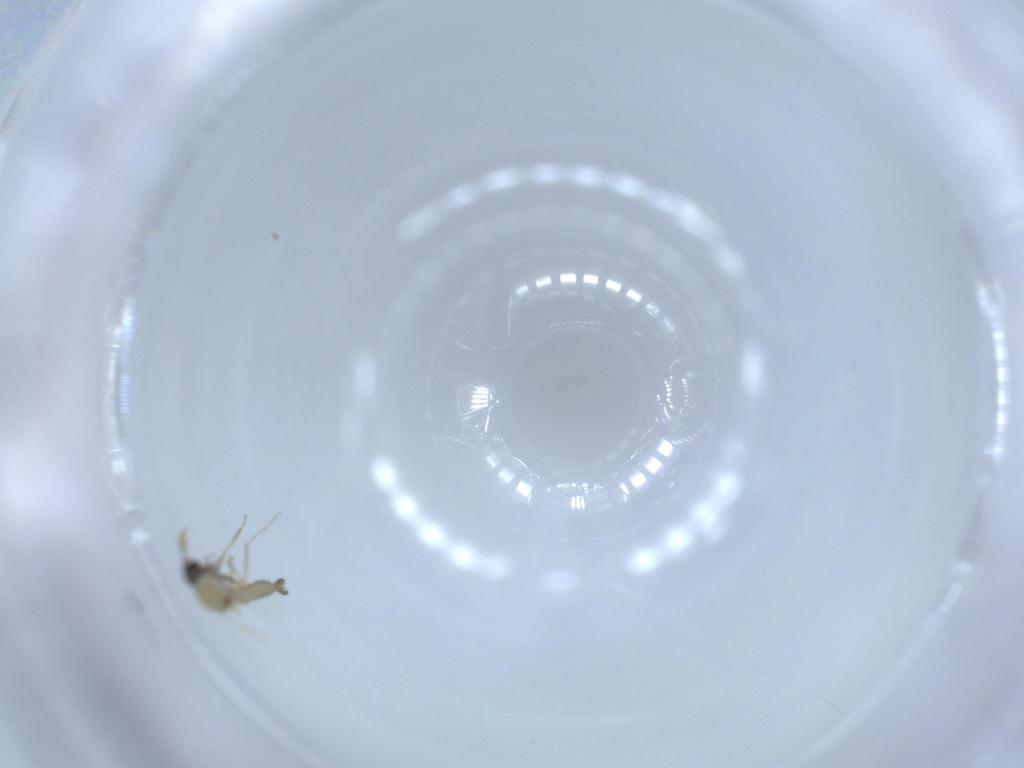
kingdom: Animalia
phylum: Arthropoda
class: Insecta
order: Diptera
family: Ceratopogonidae
